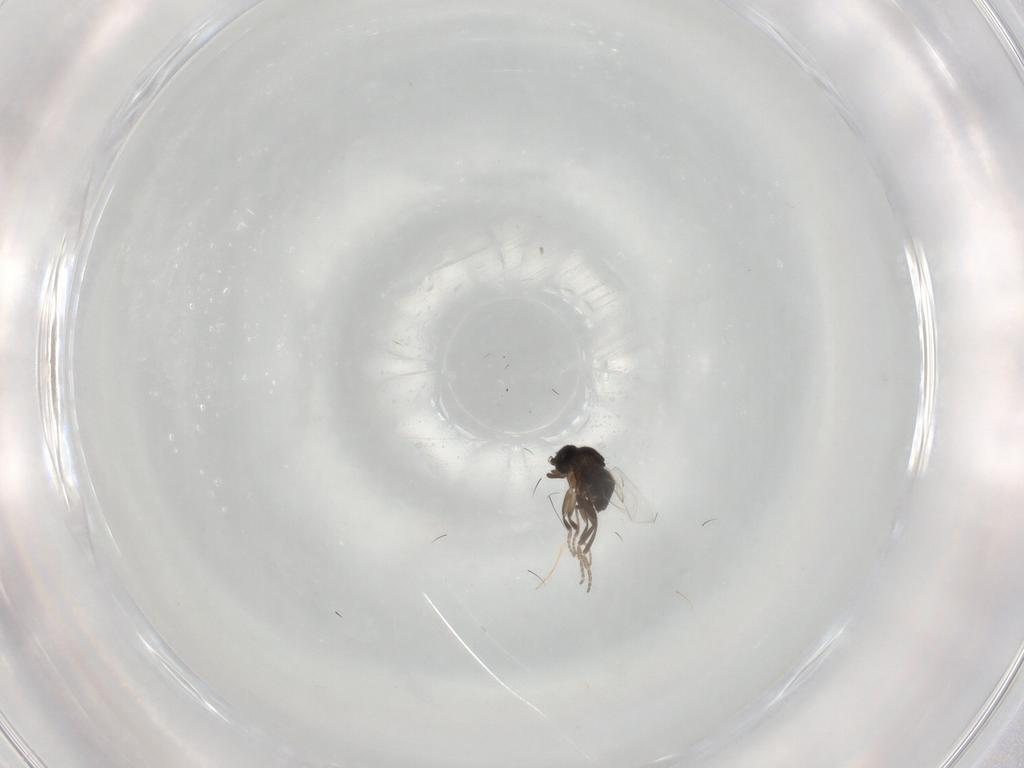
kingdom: Animalia
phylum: Arthropoda
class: Insecta
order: Diptera
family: Phoridae
